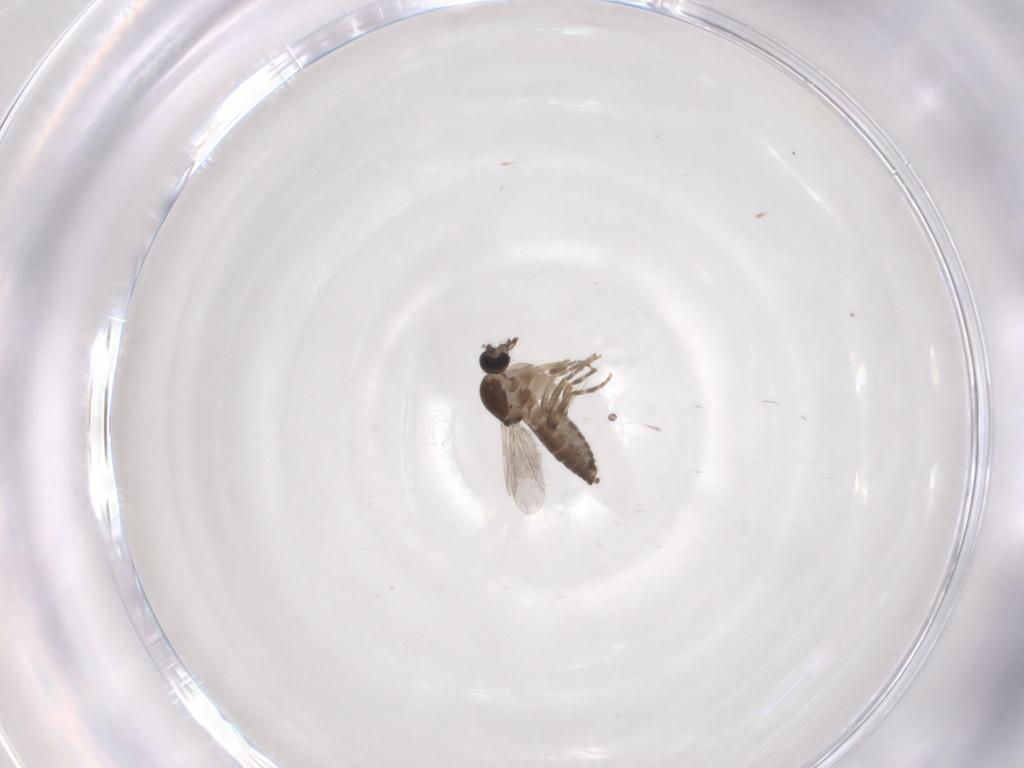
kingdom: Animalia
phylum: Arthropoda
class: Insecta
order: Diptera
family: Ceratopogonidae
